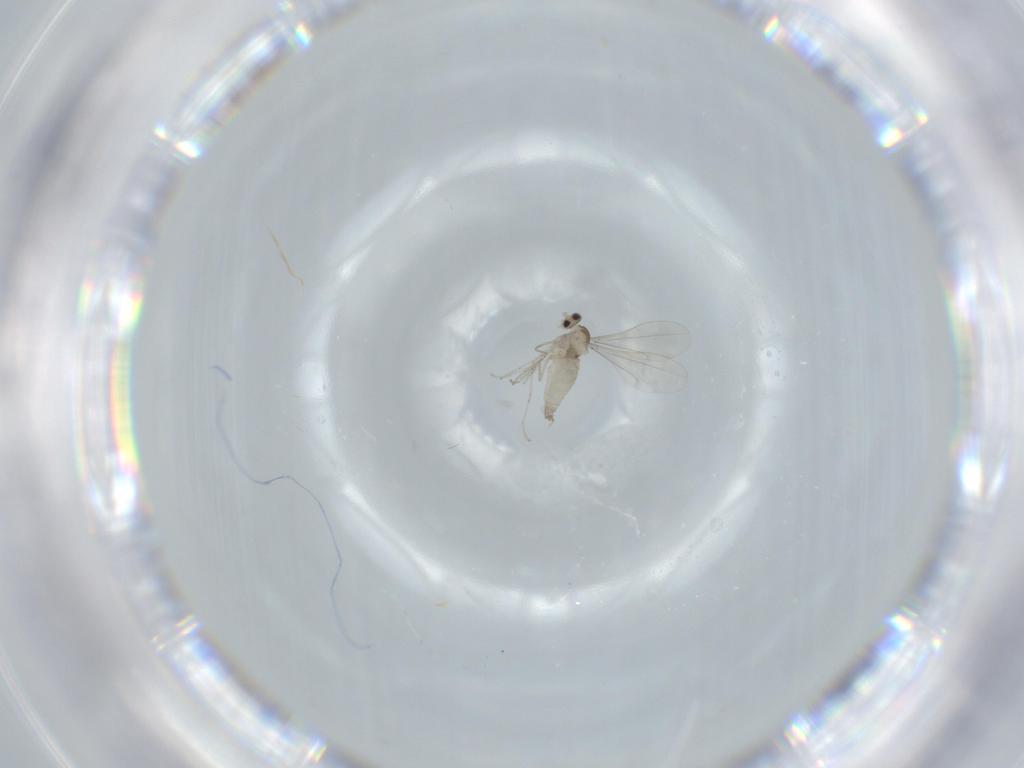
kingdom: Animalia
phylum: Arthropoda
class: Insecta
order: Diptera
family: Cecidomyiidae
